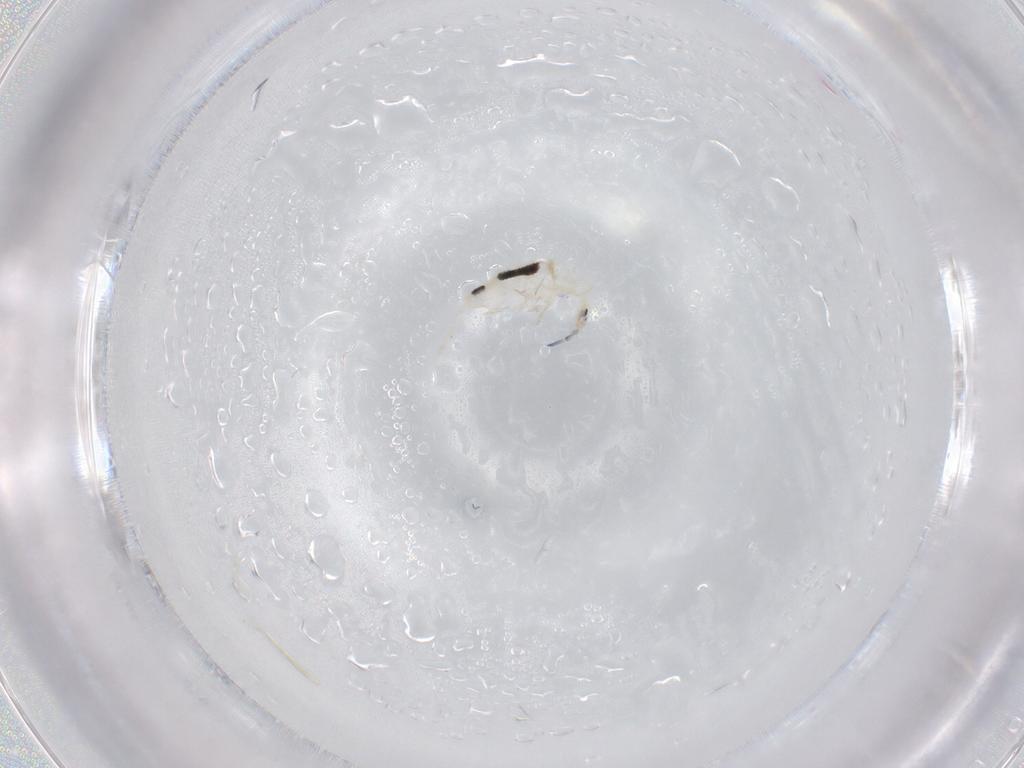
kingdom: Animalia
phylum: Arthropoda
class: Collembola
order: Entomobryomorpha
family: Entomobryidae
